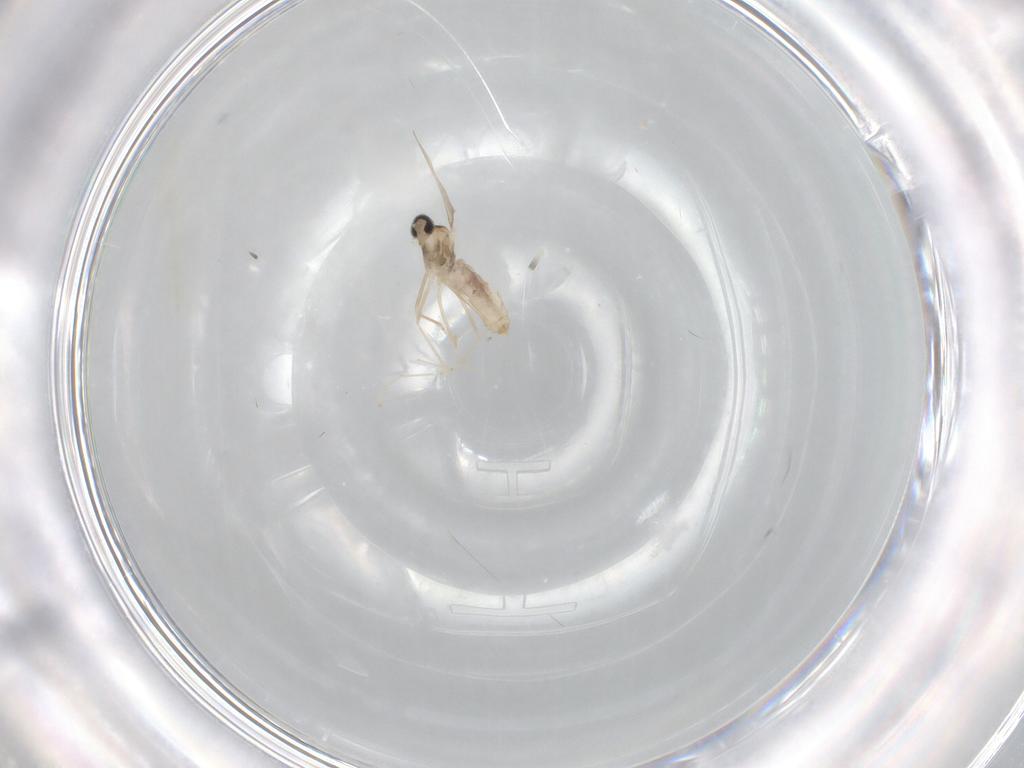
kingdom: Animalia
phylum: Arthropoda
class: Insecta
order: Diptera
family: Cecidomyiidae
